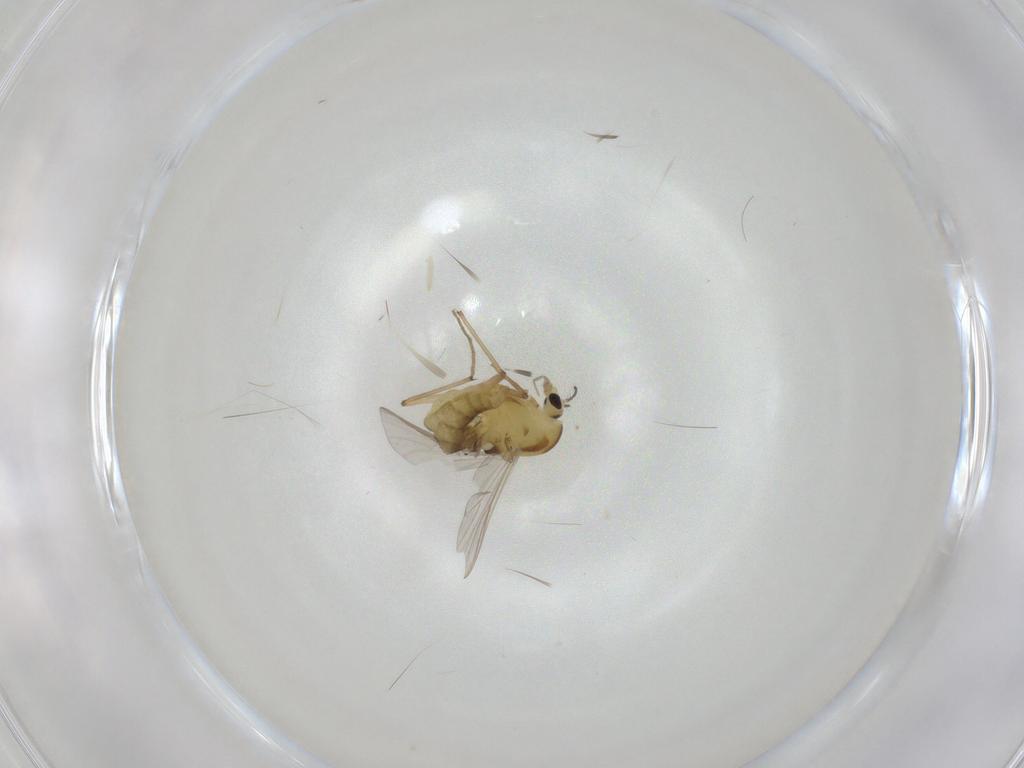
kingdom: Animalia
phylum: Arthropoda
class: Insecta
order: Diptera
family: Chironomidae
